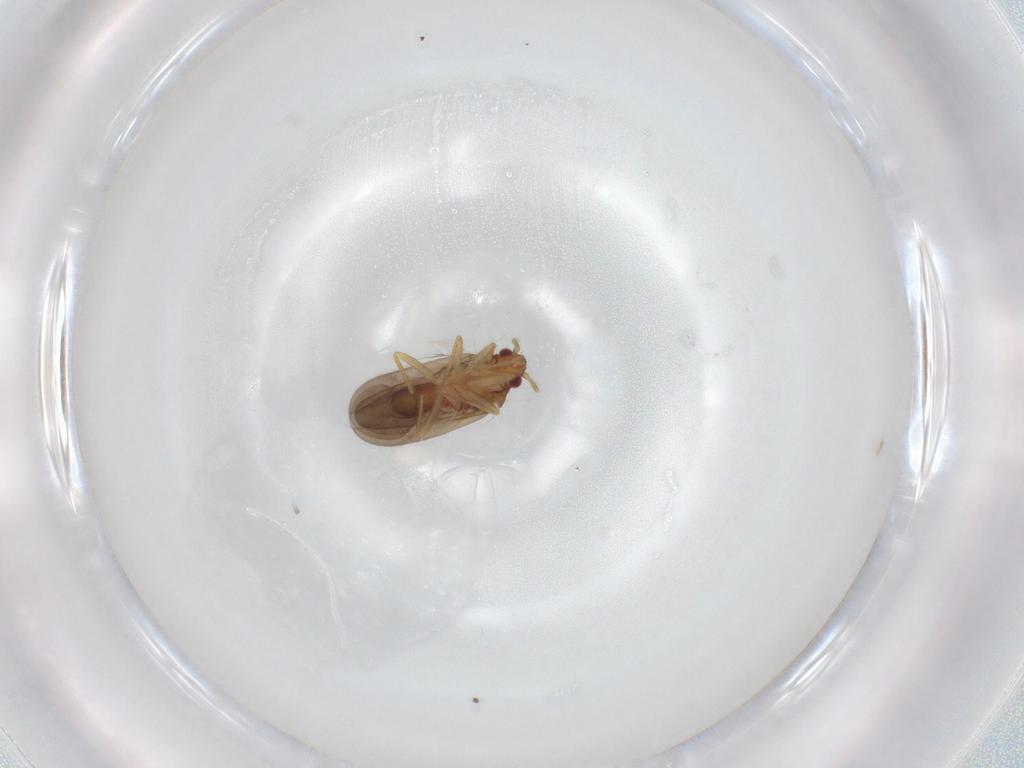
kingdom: Animalia
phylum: Arthropoda
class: Insecta
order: Hemiptera
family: Ceratocombidae
